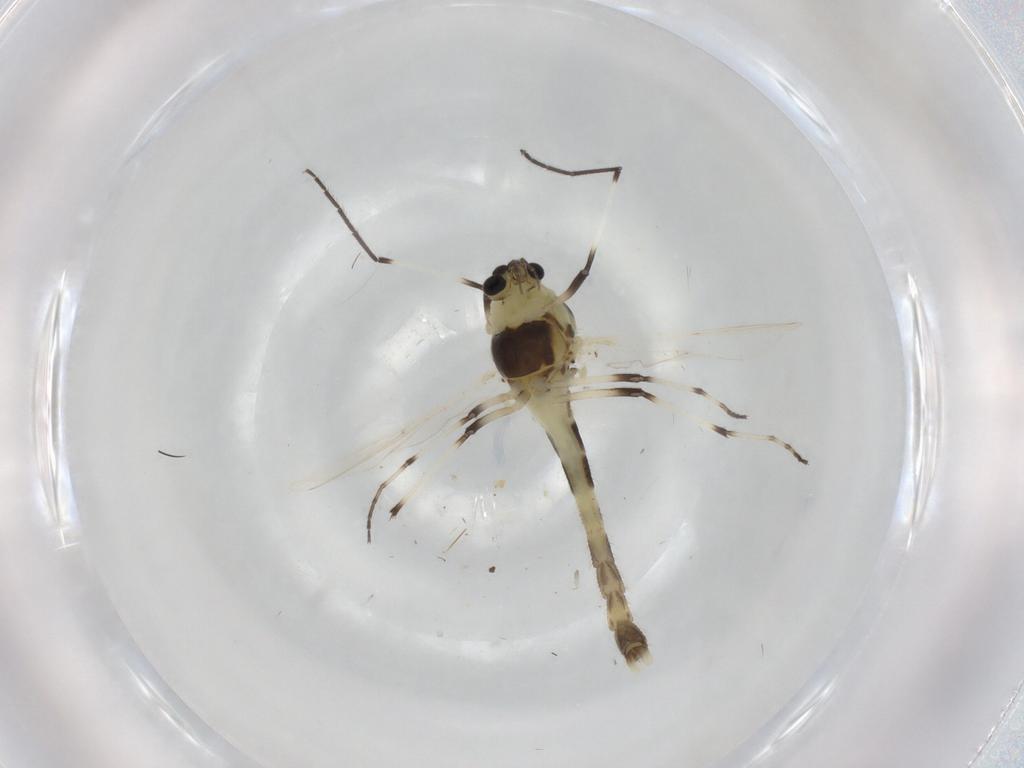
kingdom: Animalia
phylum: Arthropoda
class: Insecta
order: Diptera
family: Chironomidae
